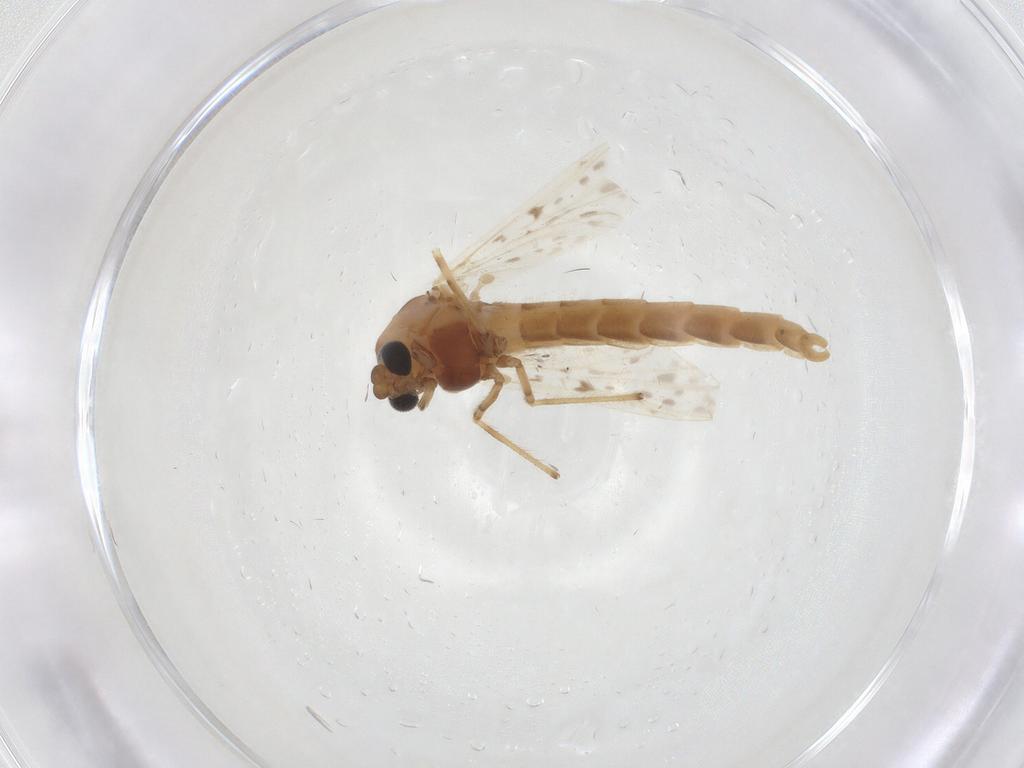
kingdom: Animalia
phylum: Arthropoda
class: Insecta
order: Diptera
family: Chironomidae
